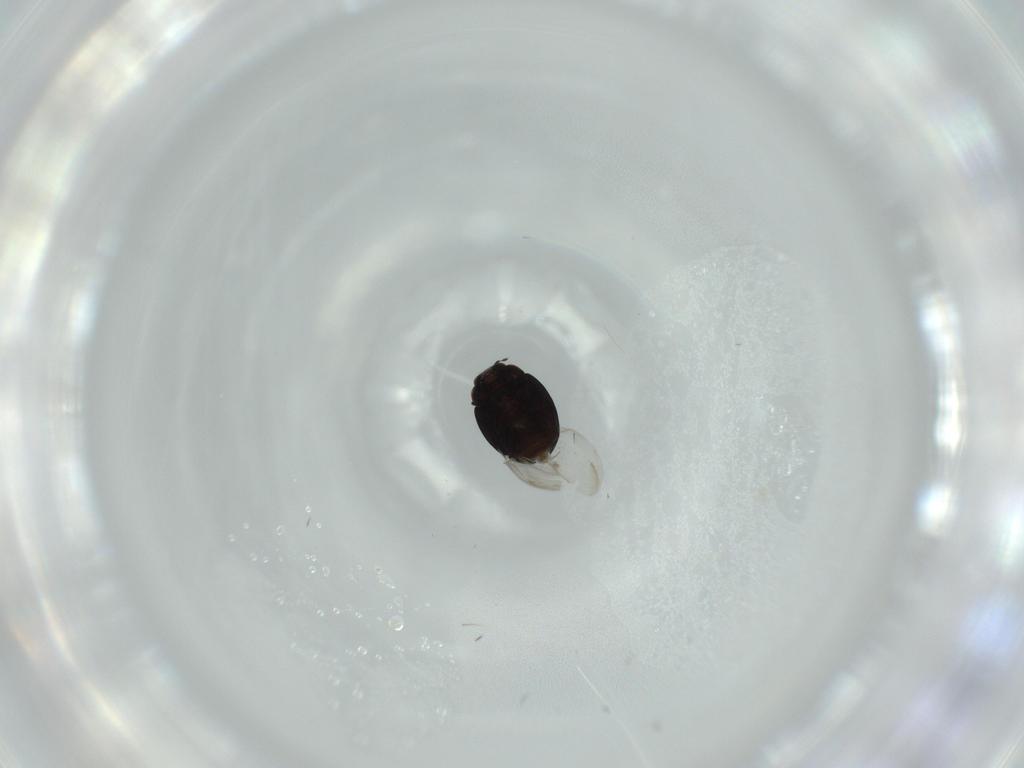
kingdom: Animalia
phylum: Arthropoda
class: Insecta
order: Coleoptera
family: Coccinellidae
